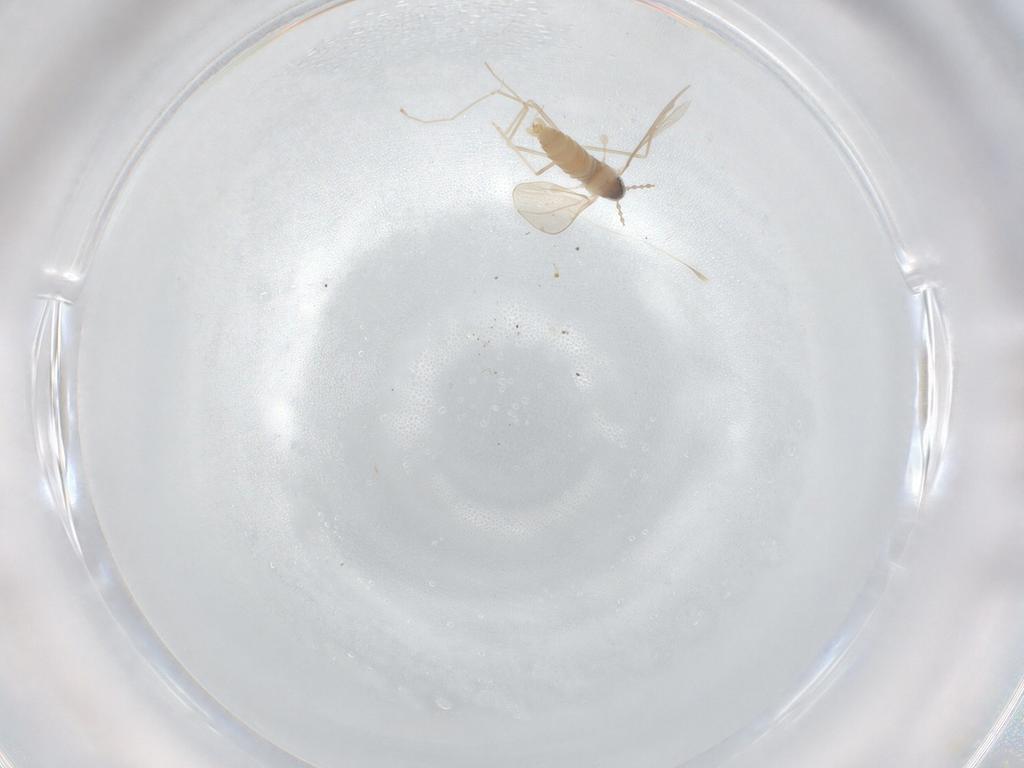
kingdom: Animalia
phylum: Arthropoda
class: Insecta
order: Diptera
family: Cecidomyiidae
